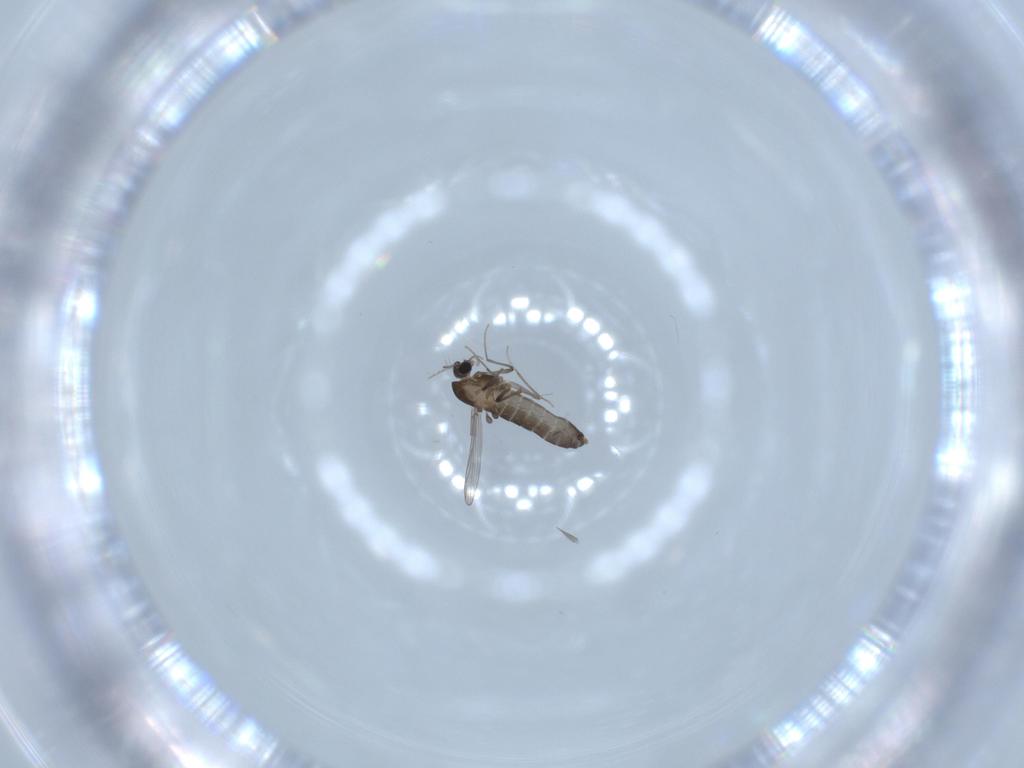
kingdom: Animalia
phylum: Arthropoda
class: Insecta
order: Diptera
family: Chironomidae
